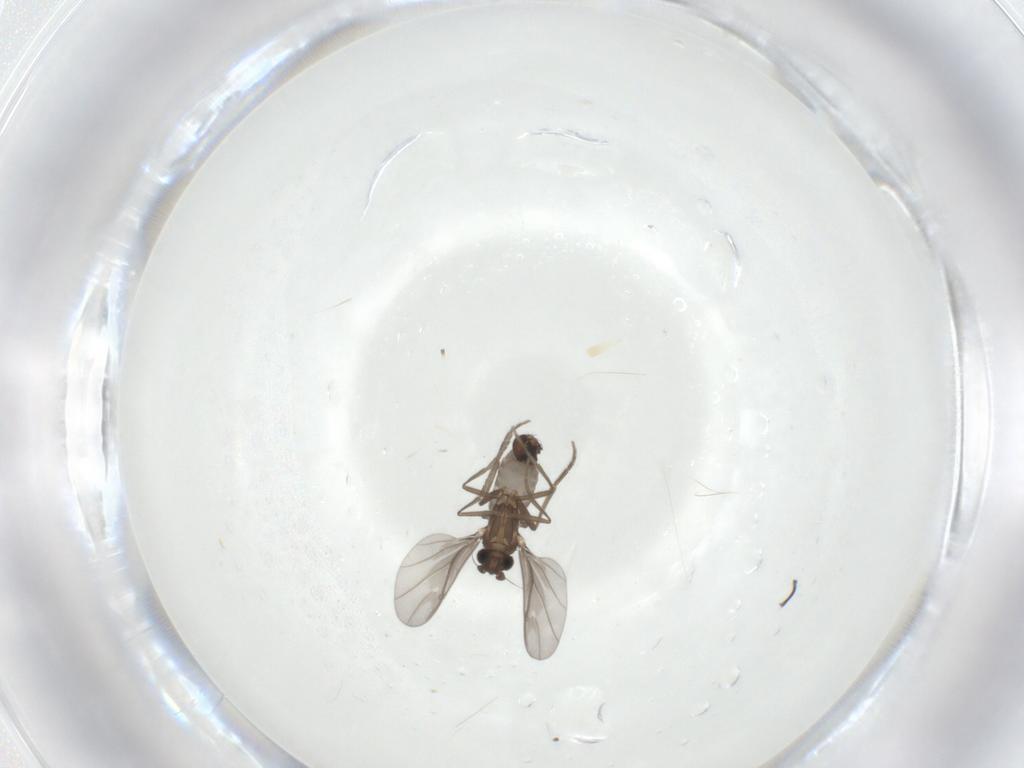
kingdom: Animalia
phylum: Arthropoda
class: Insecta
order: Diptera
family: Phoridae
